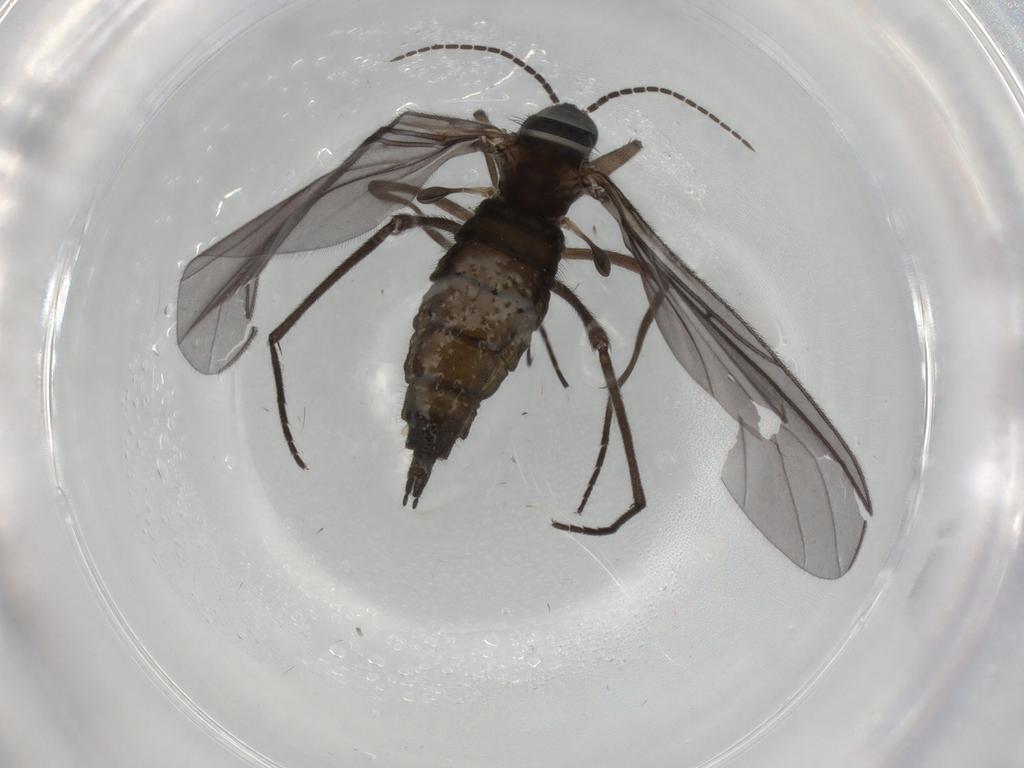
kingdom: Animalia
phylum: Arthropoda
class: Insecta
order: Diptera
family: Sciaridae
